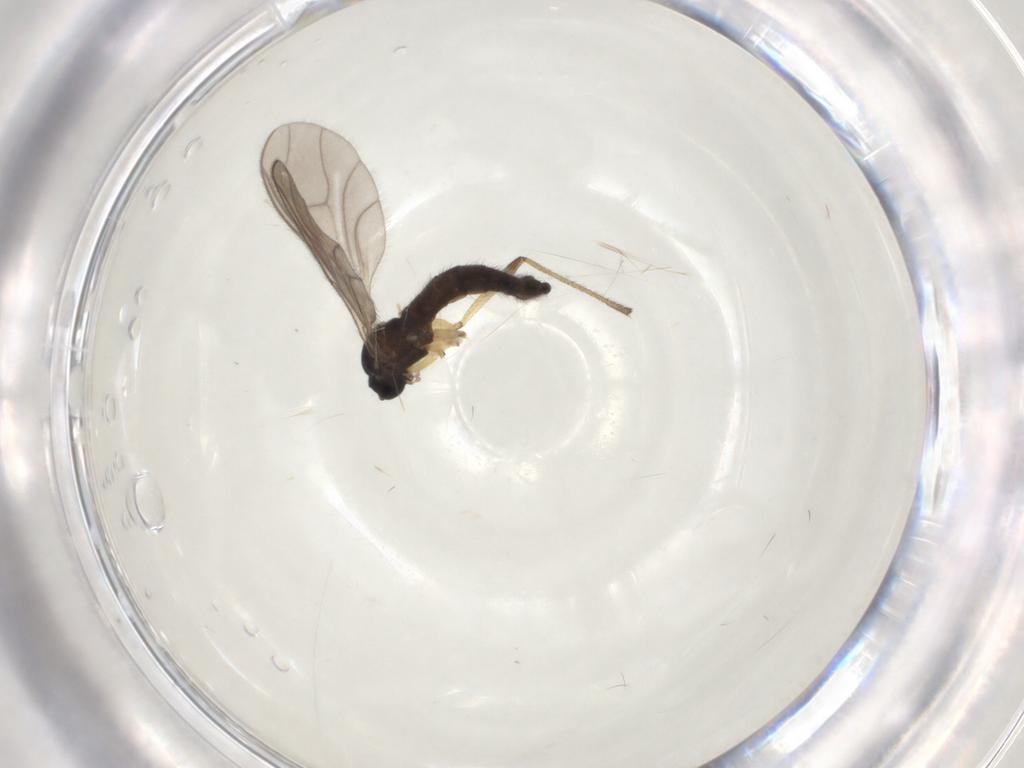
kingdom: Animalia
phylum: Arthropoda
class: Insecta
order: Diptera
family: Sciaridae
